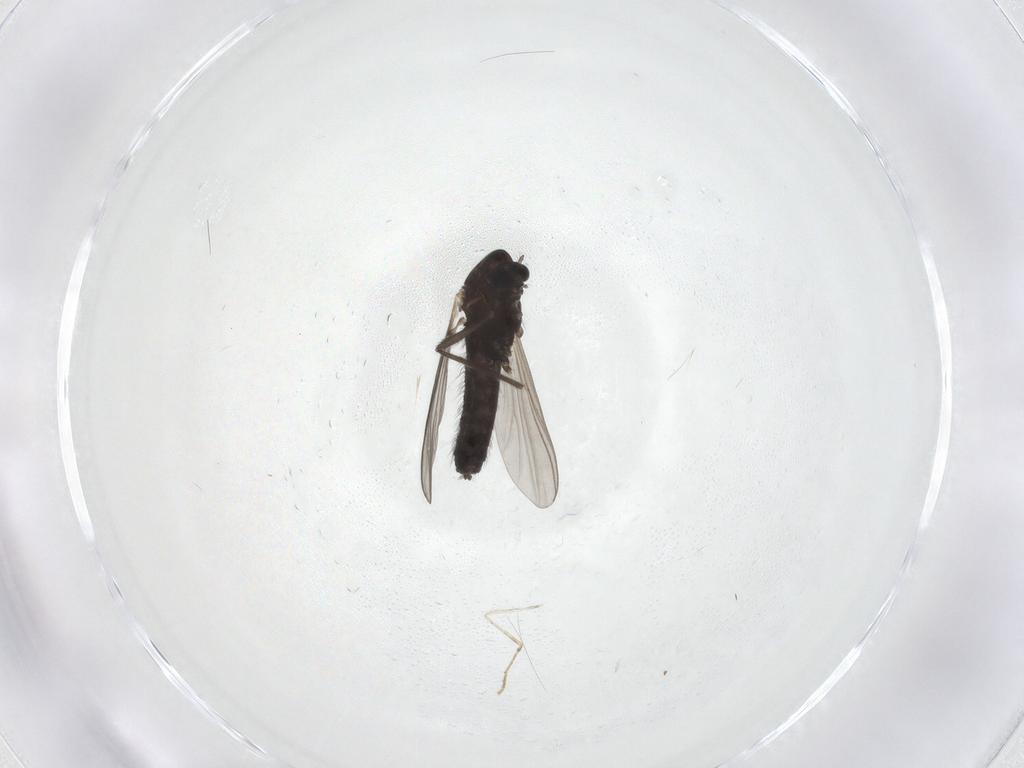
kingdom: Animalia
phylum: Arthropoda
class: Insecta
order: Diptera
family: Chironomidae
